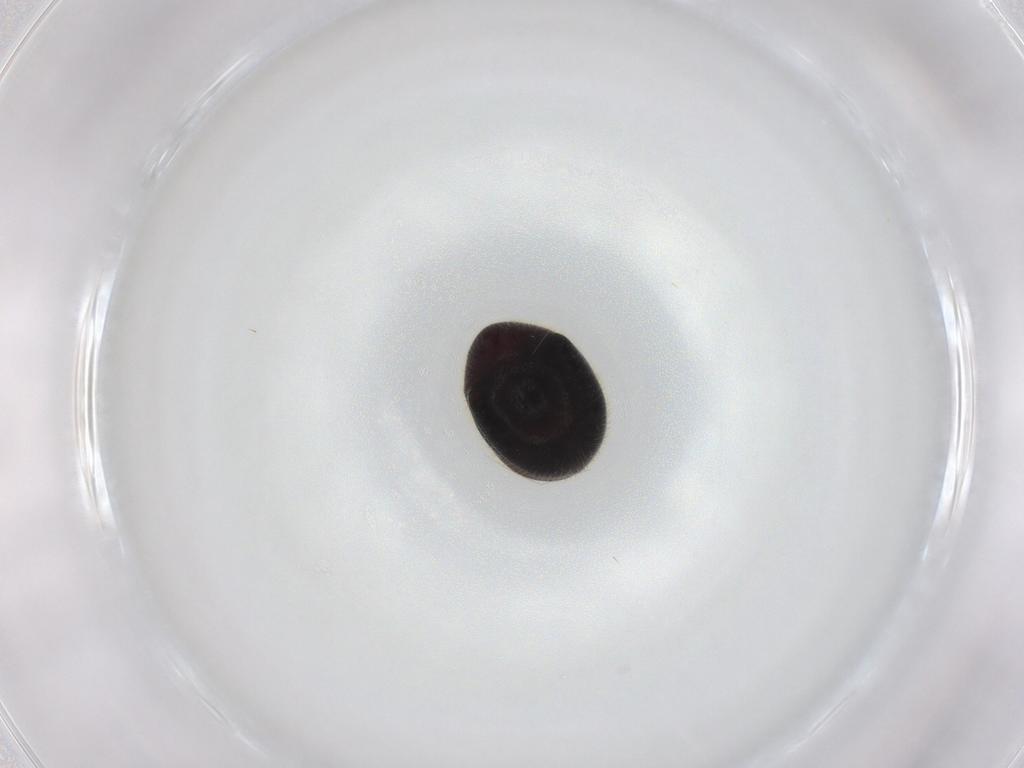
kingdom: Animalia
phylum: Arthropoda
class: Insecta
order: Coleoptera
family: Ptinidae
